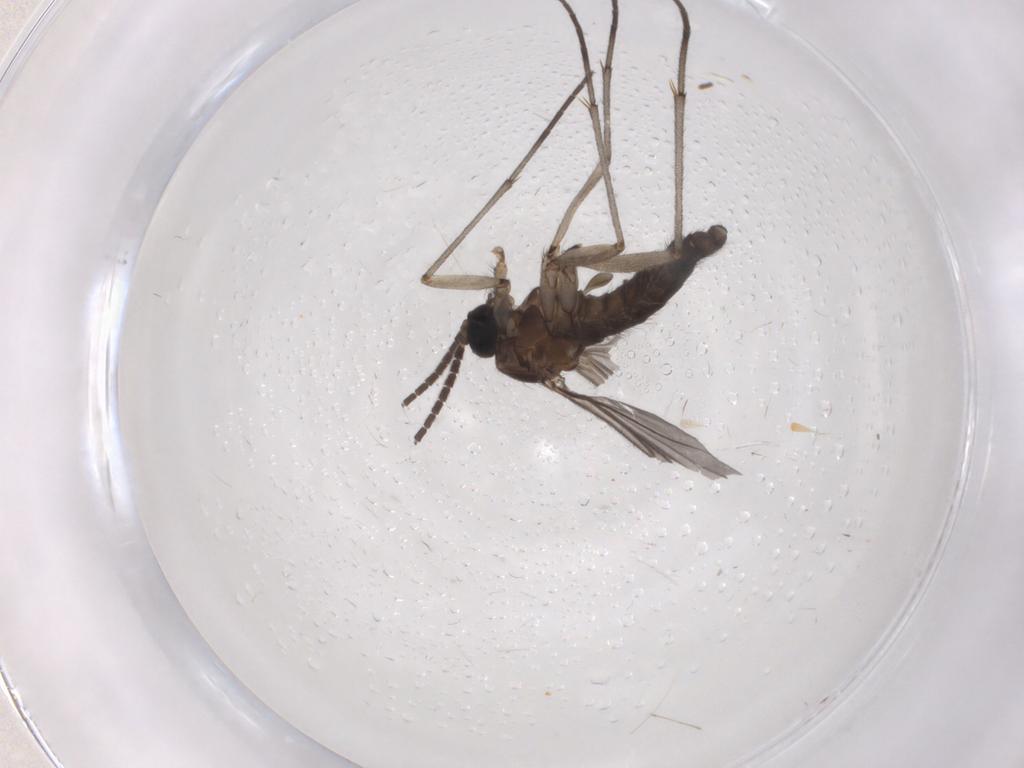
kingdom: Animalia
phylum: Arthropoda
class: Insecta
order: Diptera
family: Sciaridae
